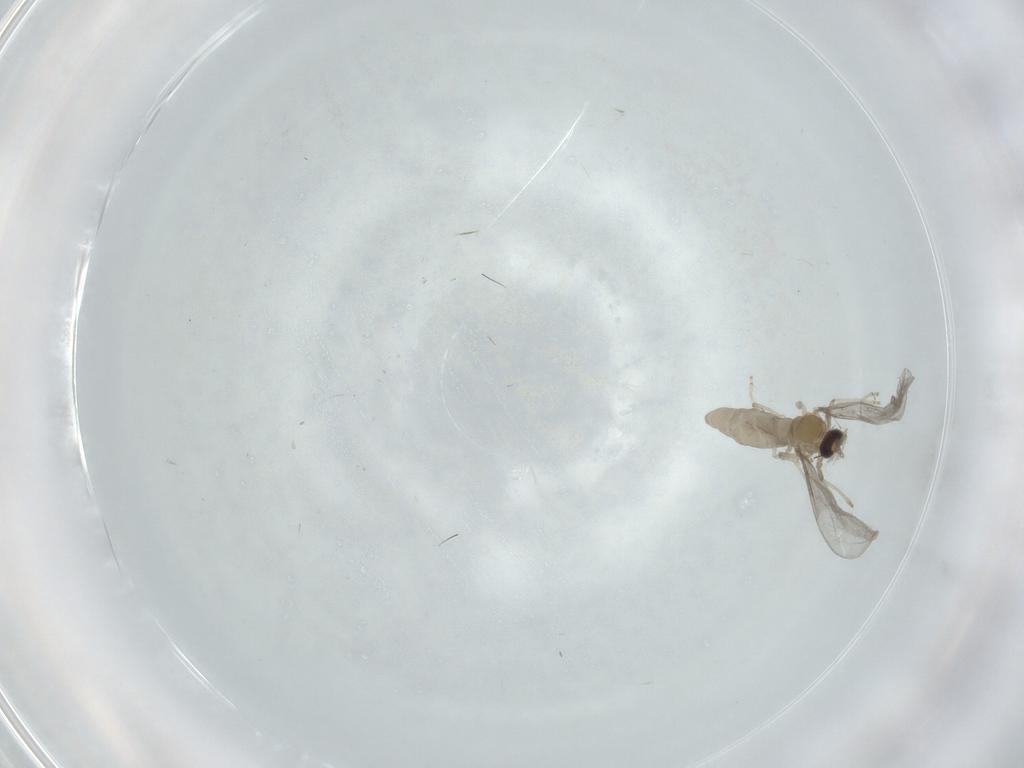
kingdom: Animalia
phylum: Arthropoda
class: Insecta
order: Diptera
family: Cecidomyiidae
